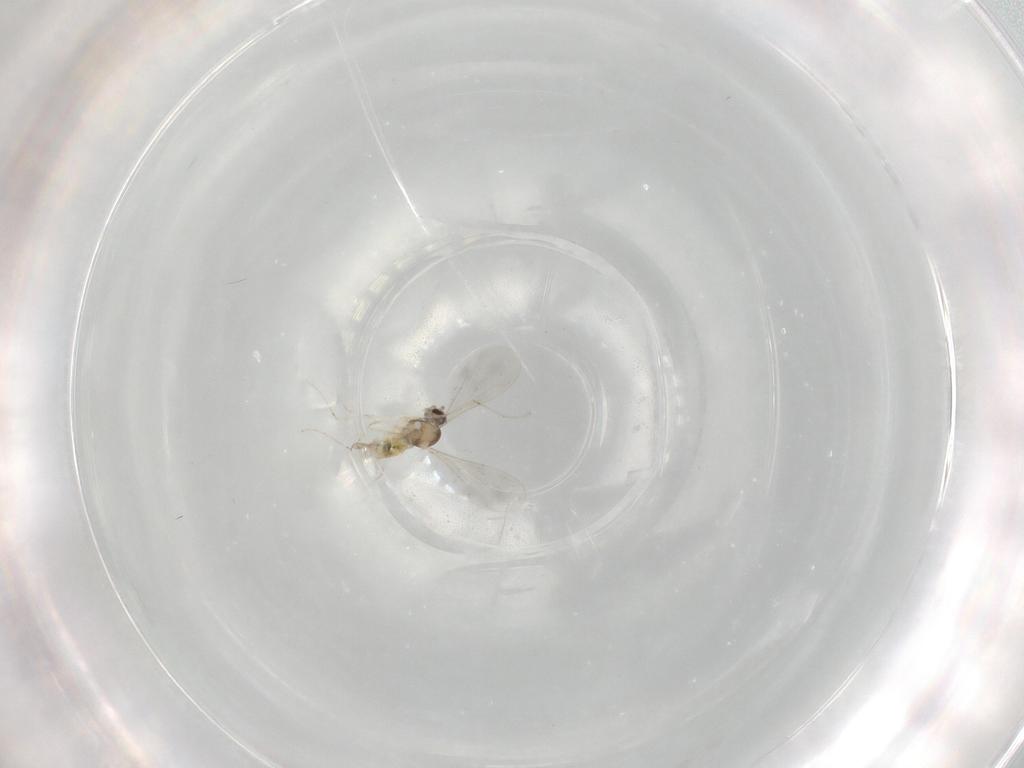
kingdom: Animalia
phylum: Arthropoda
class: Insecta
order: Diptera
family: Cecidomyiidae
